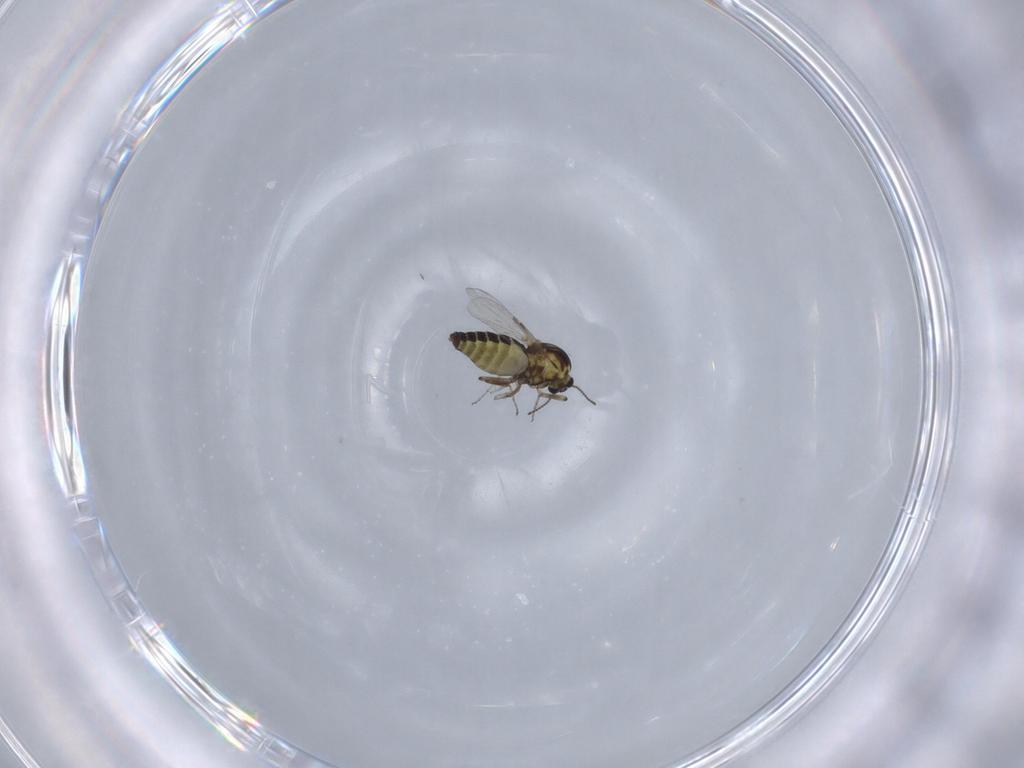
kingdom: Animalia
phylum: Arthropoda
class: Insecta
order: Diptera
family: Ceratopogonidae
